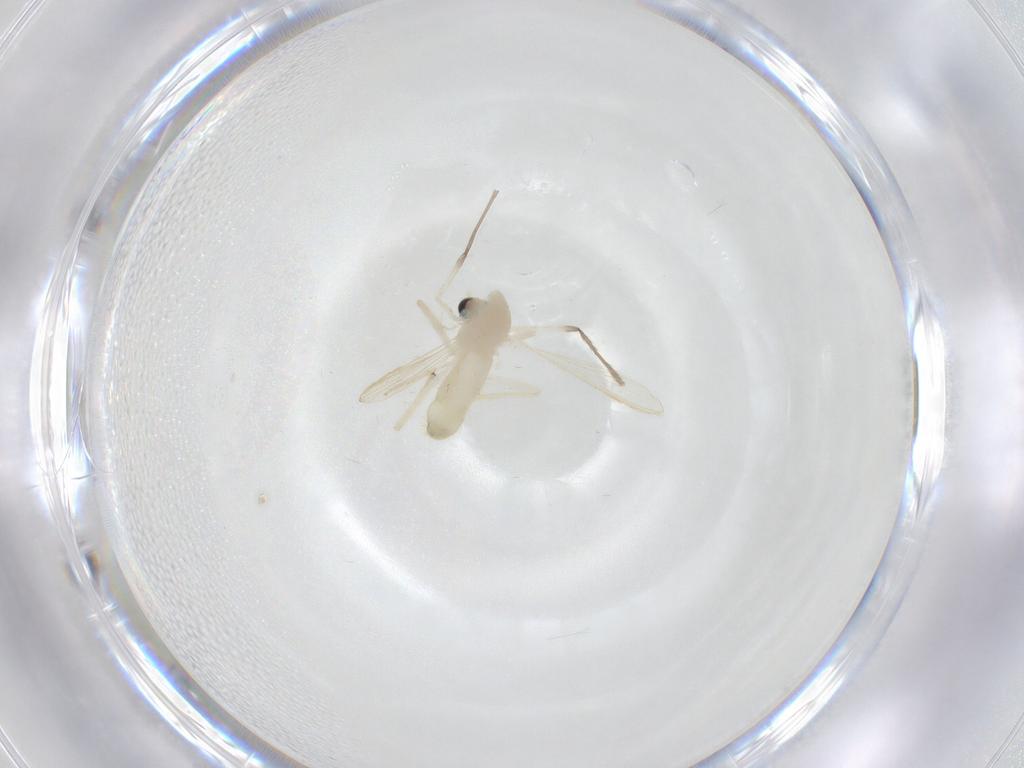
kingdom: Animalia
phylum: Arthropoda
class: Insecta
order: Diptera
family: Chironomidae
